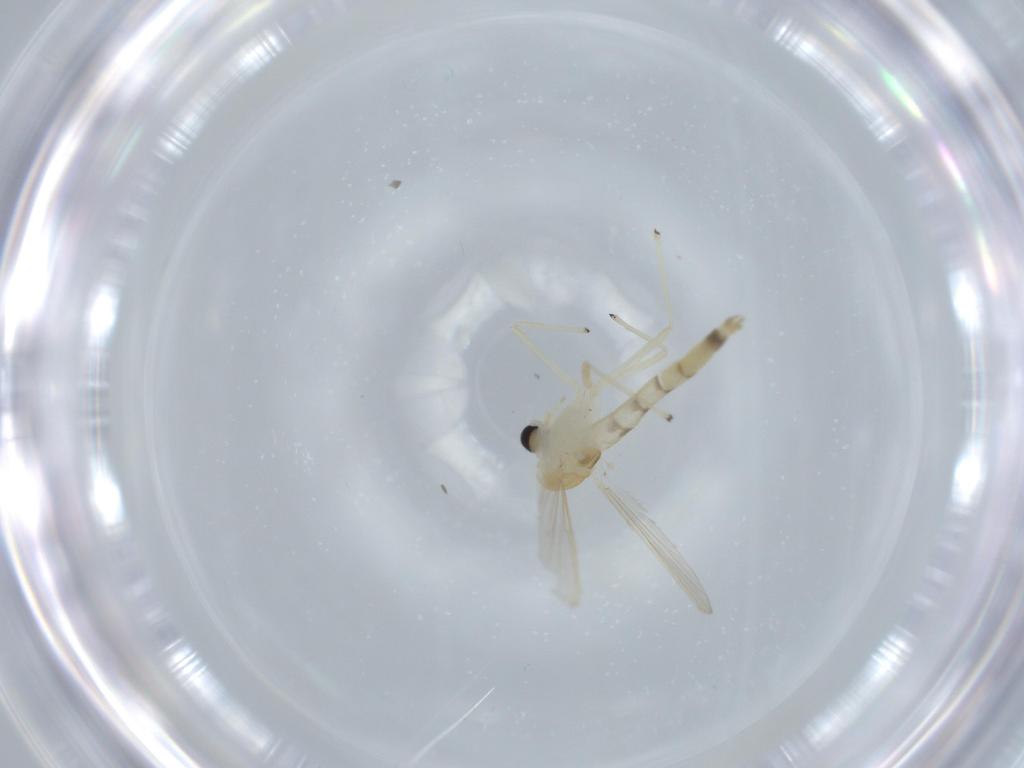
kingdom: Animalia
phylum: Arthropoda
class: Insecta
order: Diptera
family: Chironomidae
